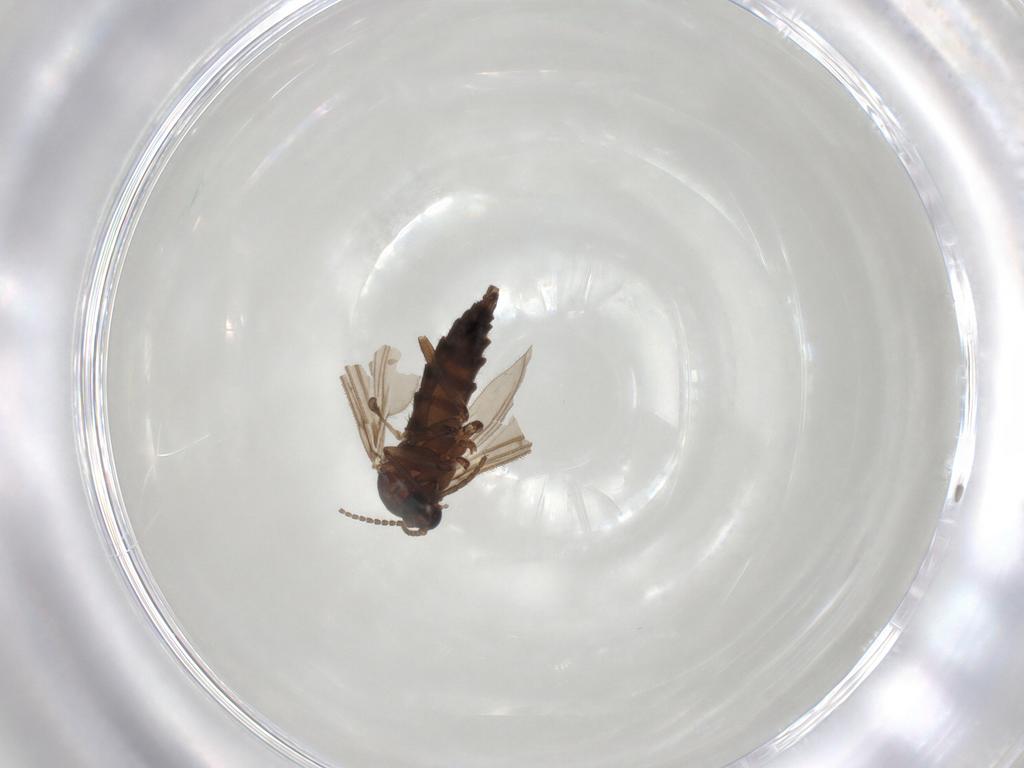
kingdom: Animalia
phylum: Arthropoda
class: Insecta
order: Diptera
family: Sciaridae
